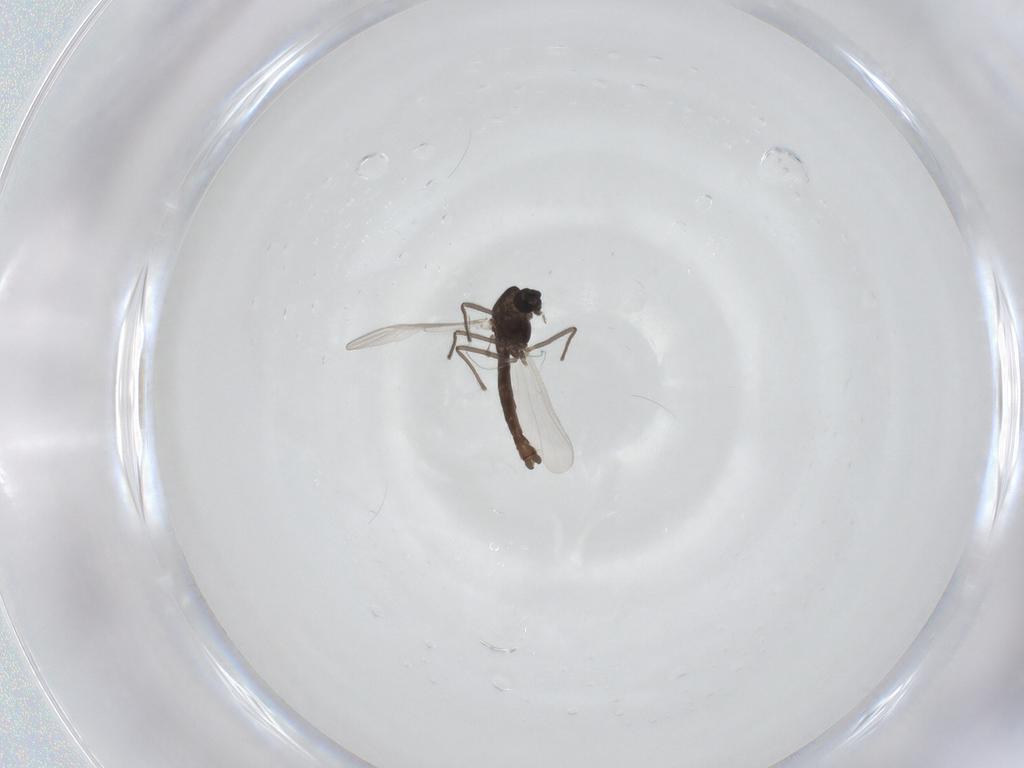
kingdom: Animalia
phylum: Arthropoda
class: Insecta
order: Diptera
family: Chironomidae
